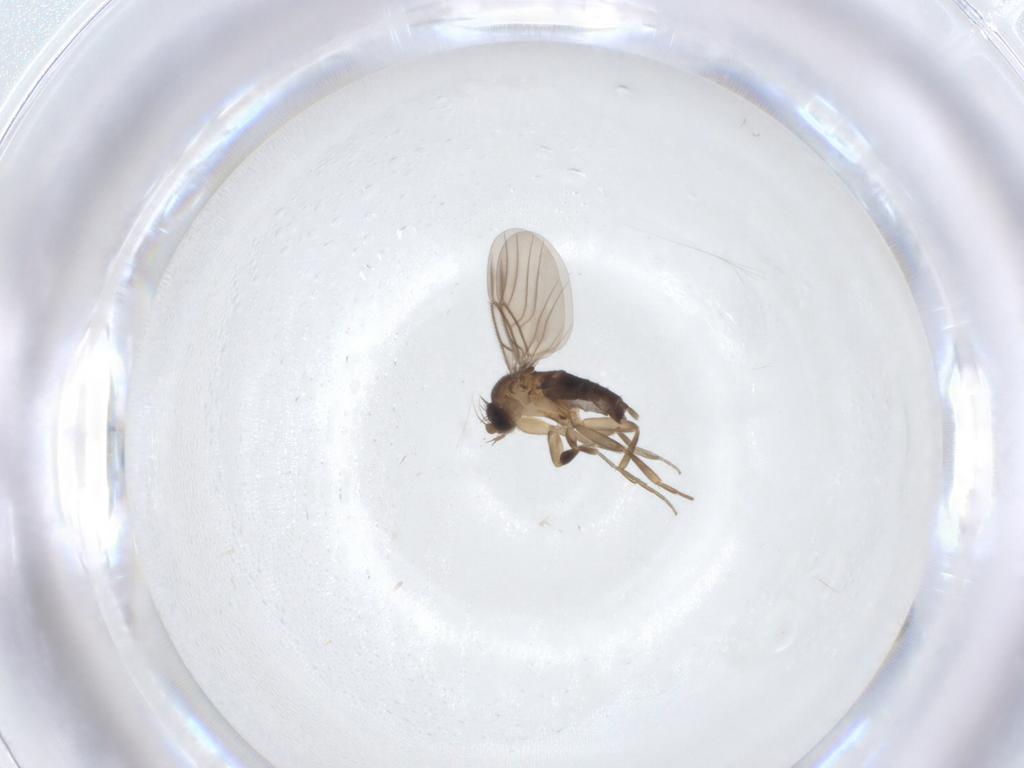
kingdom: Animalia
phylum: Arthropoda
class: Insecta
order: Diptera
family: Phoridae
